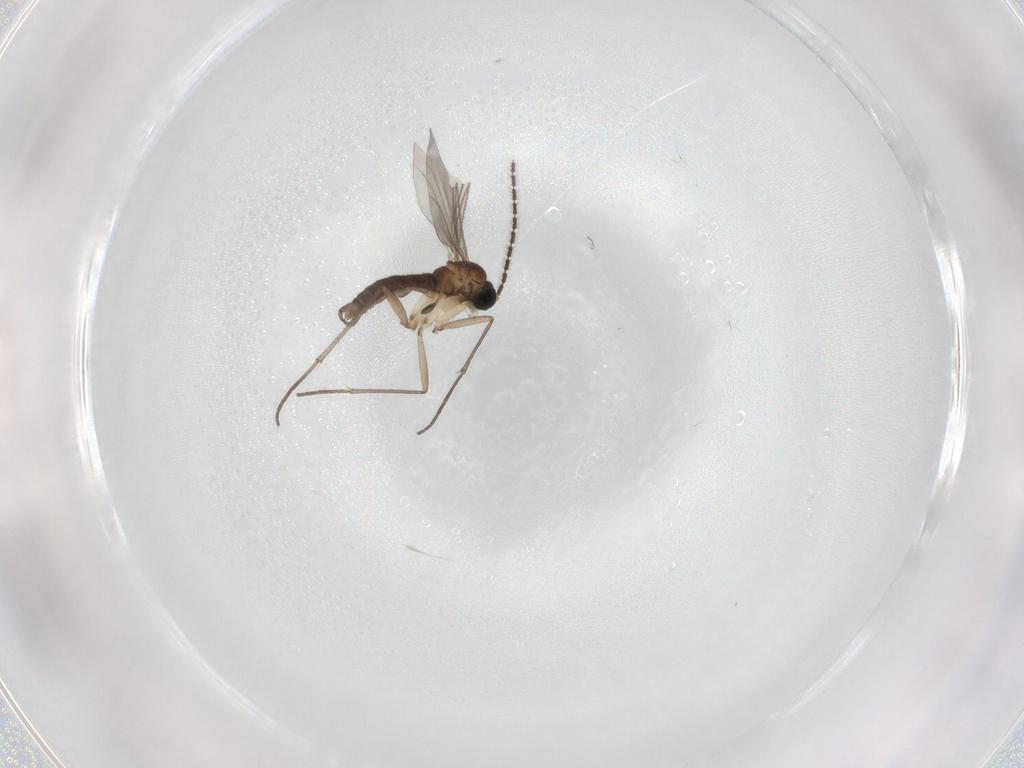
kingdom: Animalia
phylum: Arthropoda
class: Insecta
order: Diptera
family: Sciaridae
